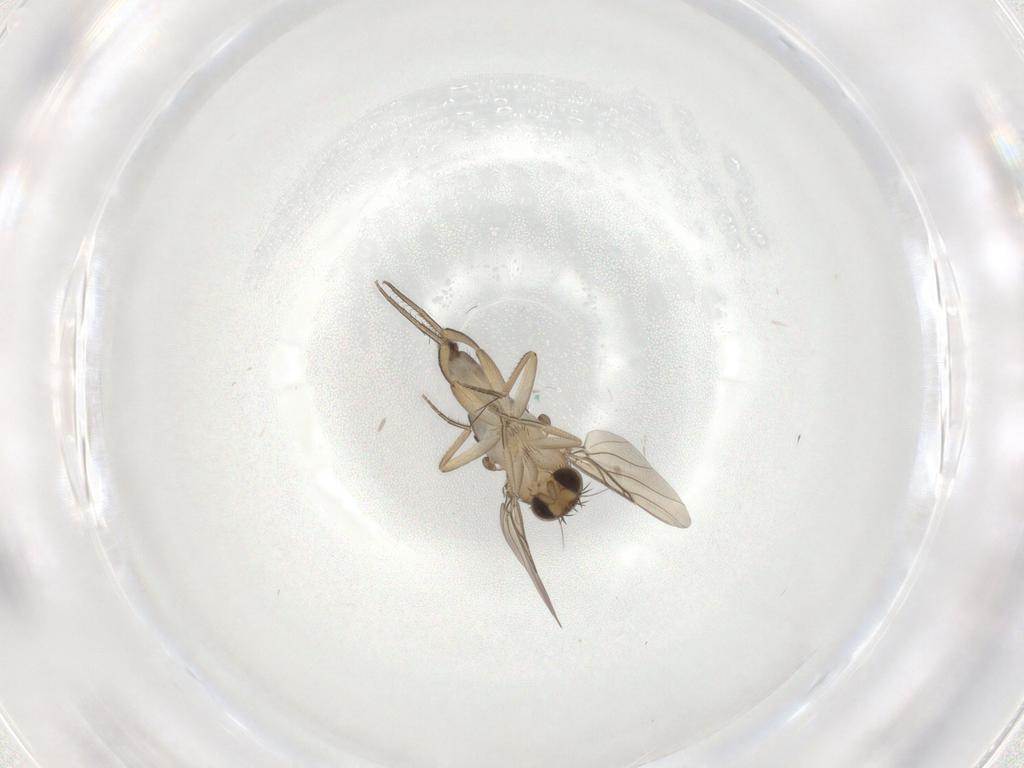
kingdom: Animalia
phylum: Arthropoda
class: Insecta
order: Diptera
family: Phoridae
